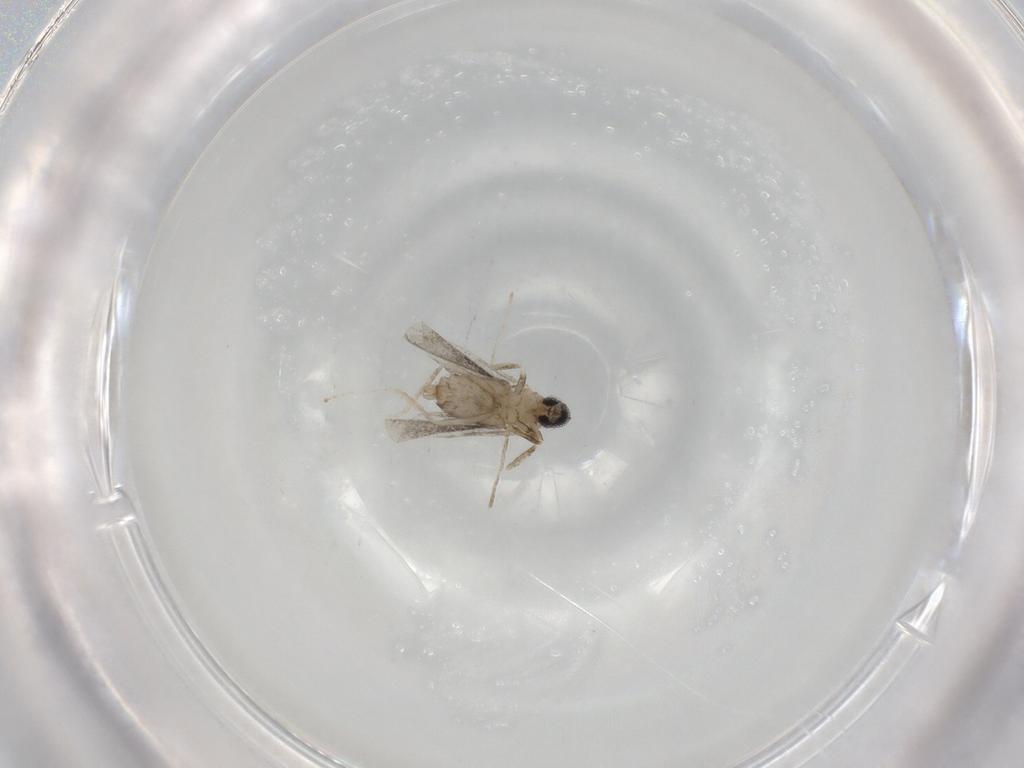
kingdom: Animalia
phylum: Arthropoda
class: Insecta
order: Diptera
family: Cecidomyiidae
